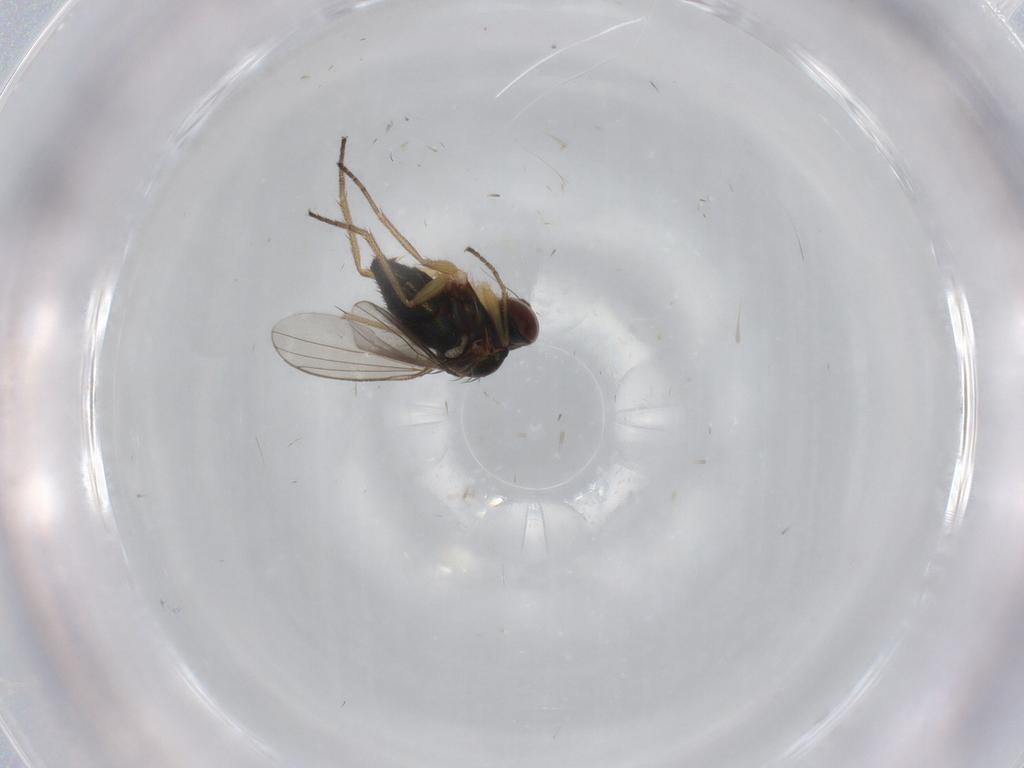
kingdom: Animalia
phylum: Arthropoda
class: Insecta
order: Diptera
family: Dolichopodidae
